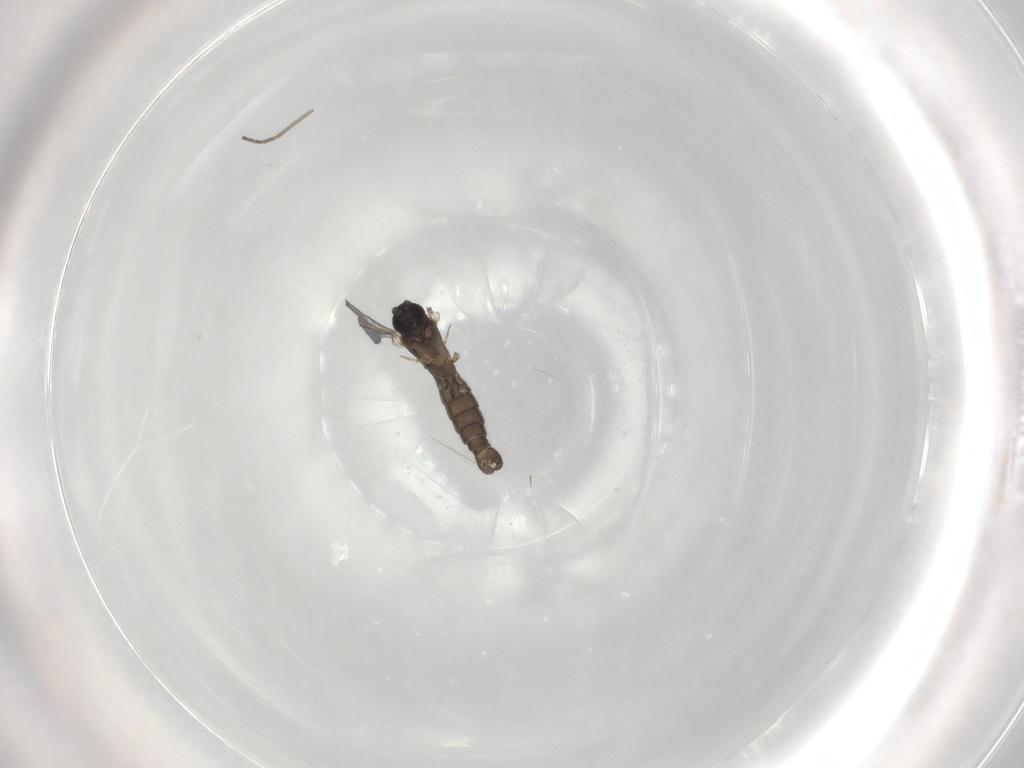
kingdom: Animalia
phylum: Arthropoda
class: Insecta
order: Diptera
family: Sciaridae
